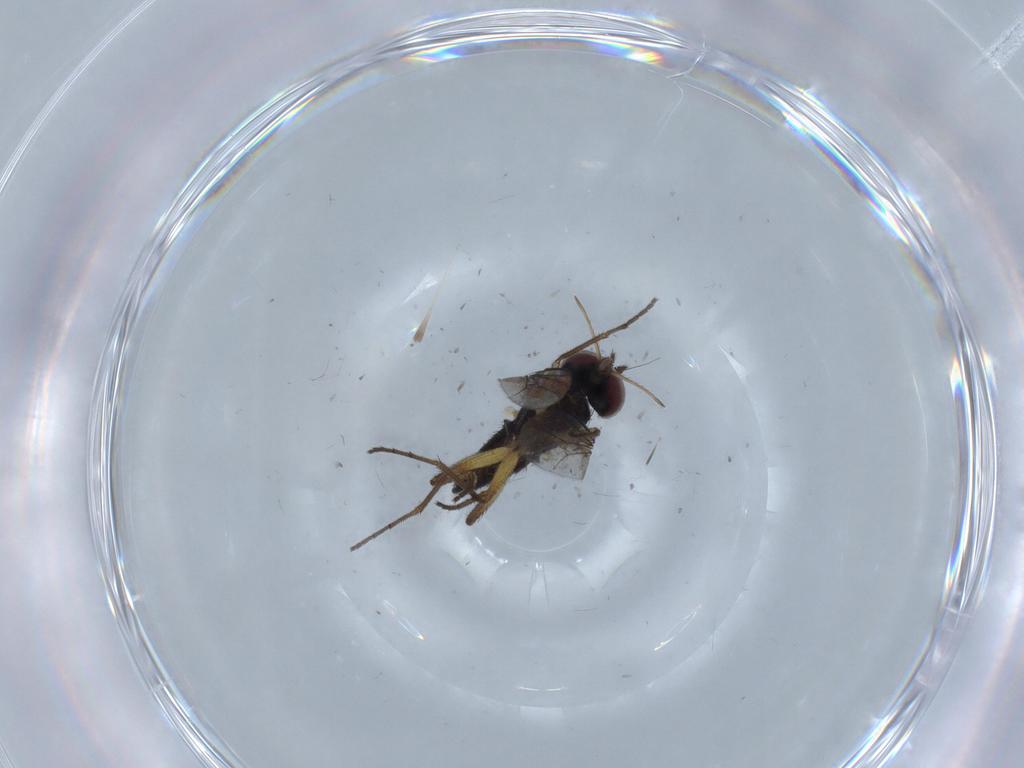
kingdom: Animalia
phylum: Arthropoda
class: Insecta
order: Diptera
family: Dolichopodidae
